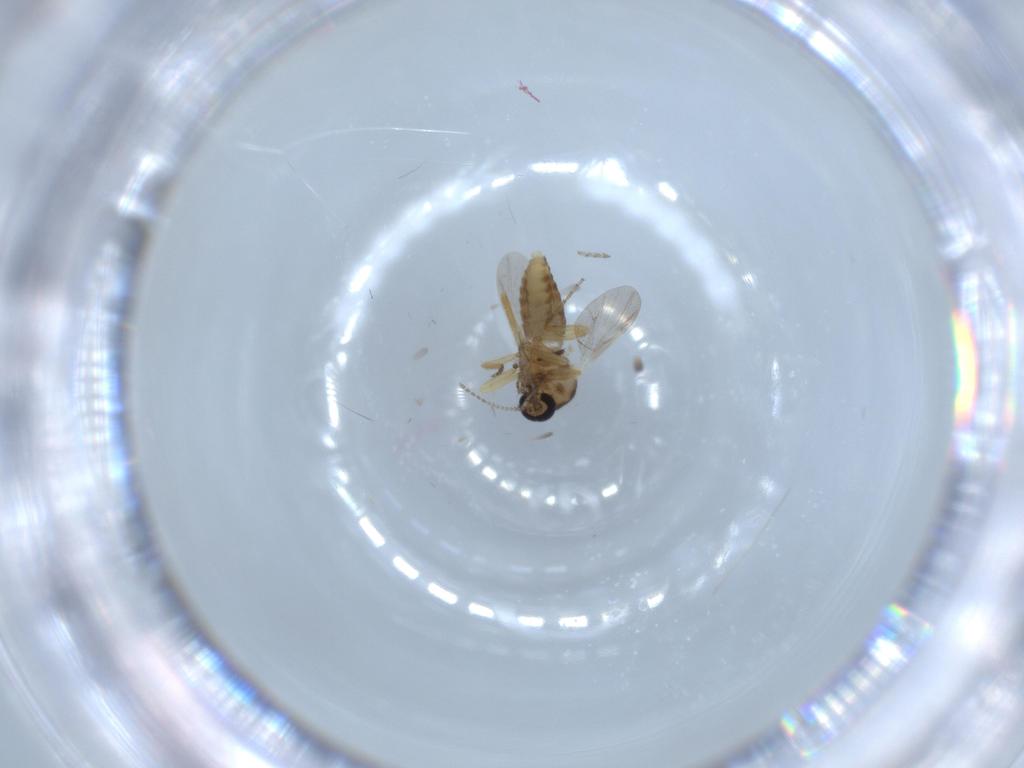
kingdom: Animalia
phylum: Arthropoda
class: Insecta
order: Diptera
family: Ceratopogonidae
